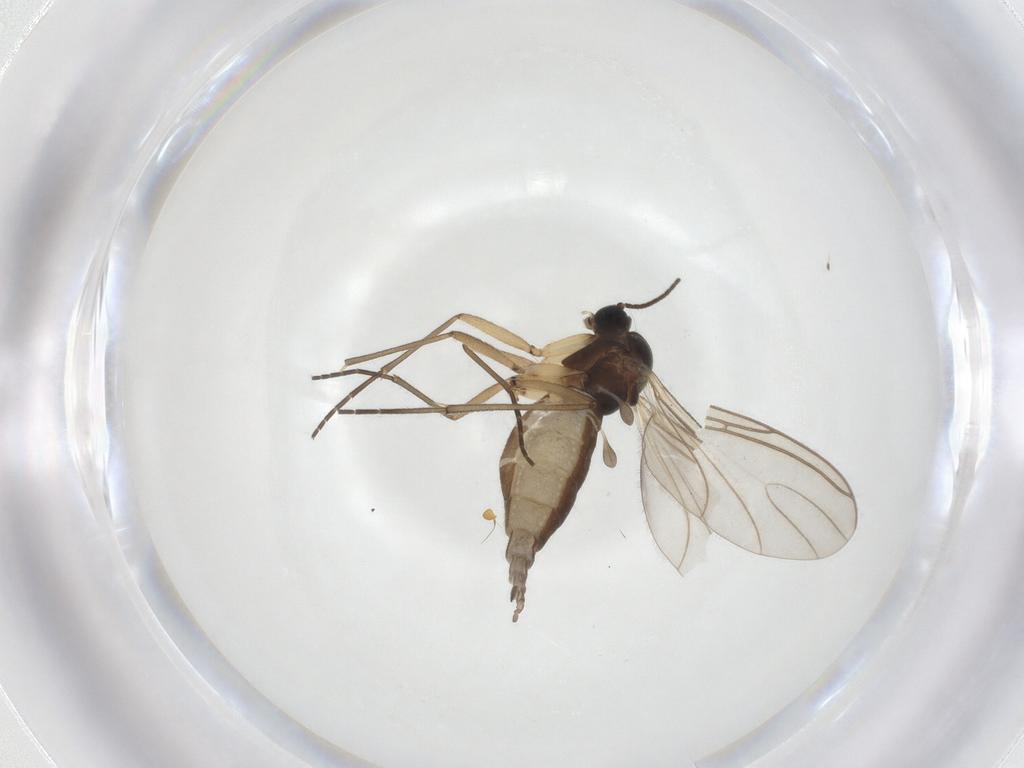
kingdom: Animalia
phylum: Arthropoda
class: Insecta
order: Diptera
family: Sciaridae
